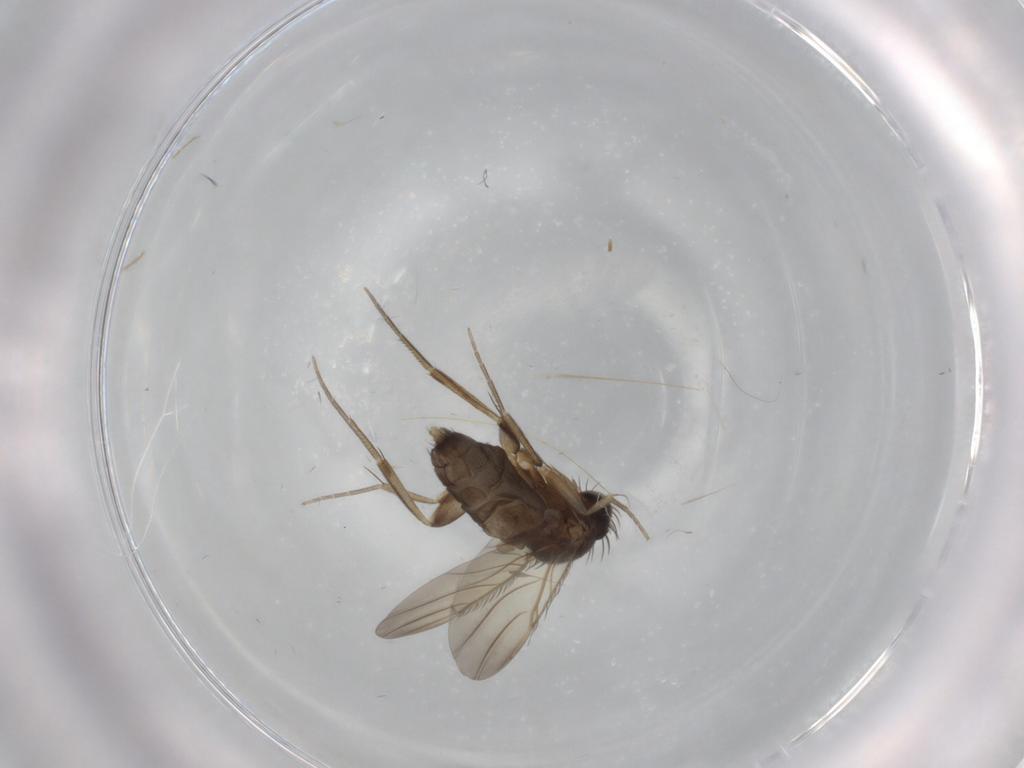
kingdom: Animalia
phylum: Arthropoda
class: Insecta
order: Diptera
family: Phoridae
